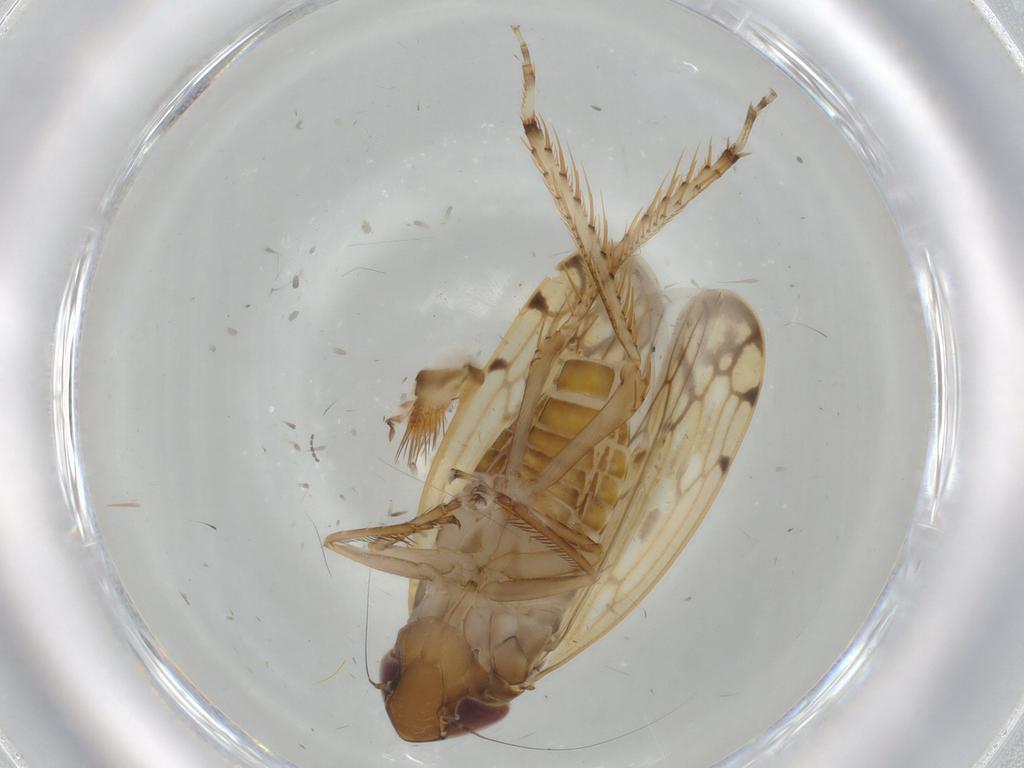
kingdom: Animalia
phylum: Arthropoda
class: Insecta
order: Hemiptera
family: Cicadellidae
